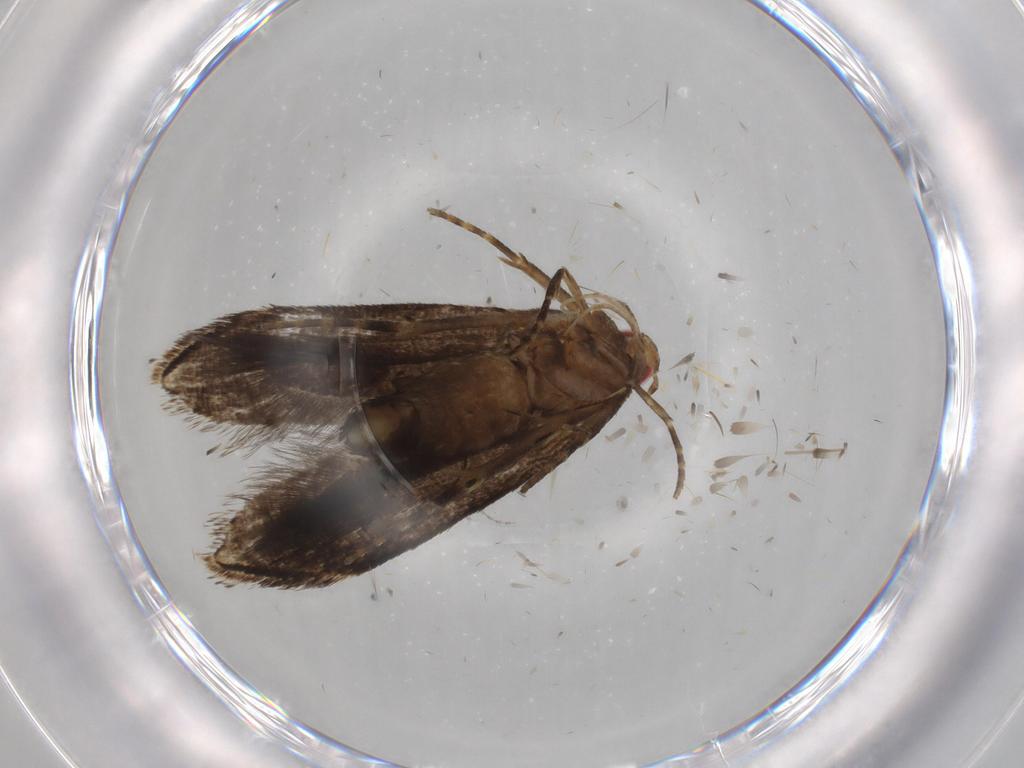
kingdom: Animalia
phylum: Arthropoda
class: Insecta
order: Lepidoptera
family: Gelechiidae
